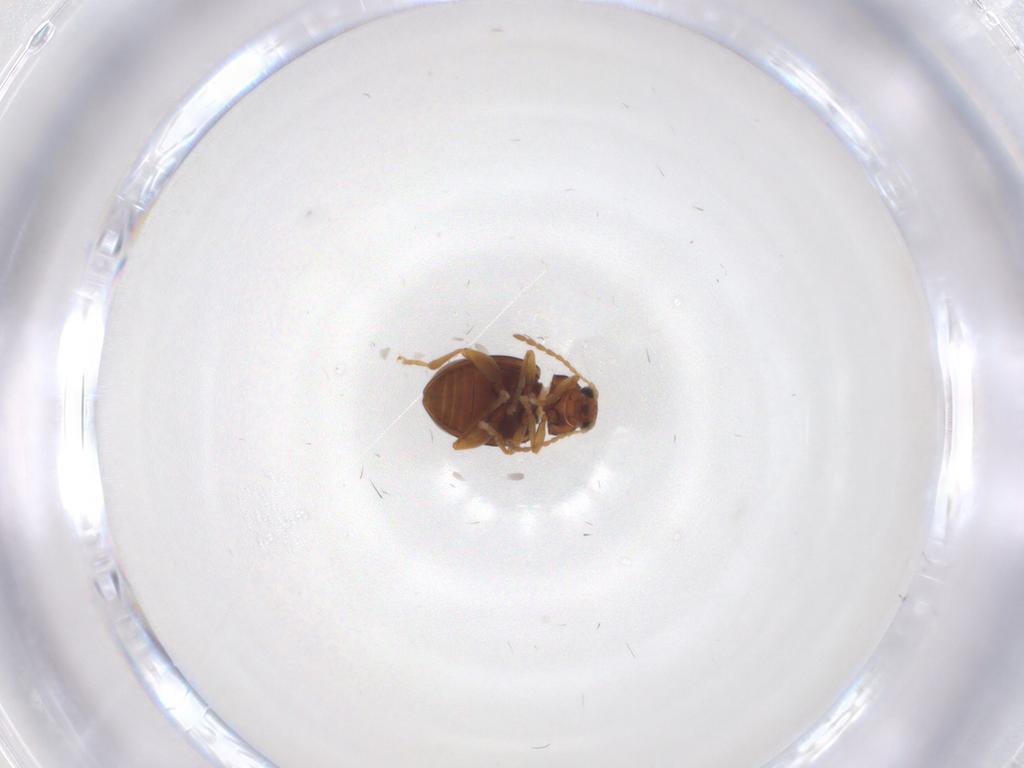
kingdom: Animalia
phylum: Arthropoda
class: Insecta
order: Coleoptera
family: Chrysomelidae
